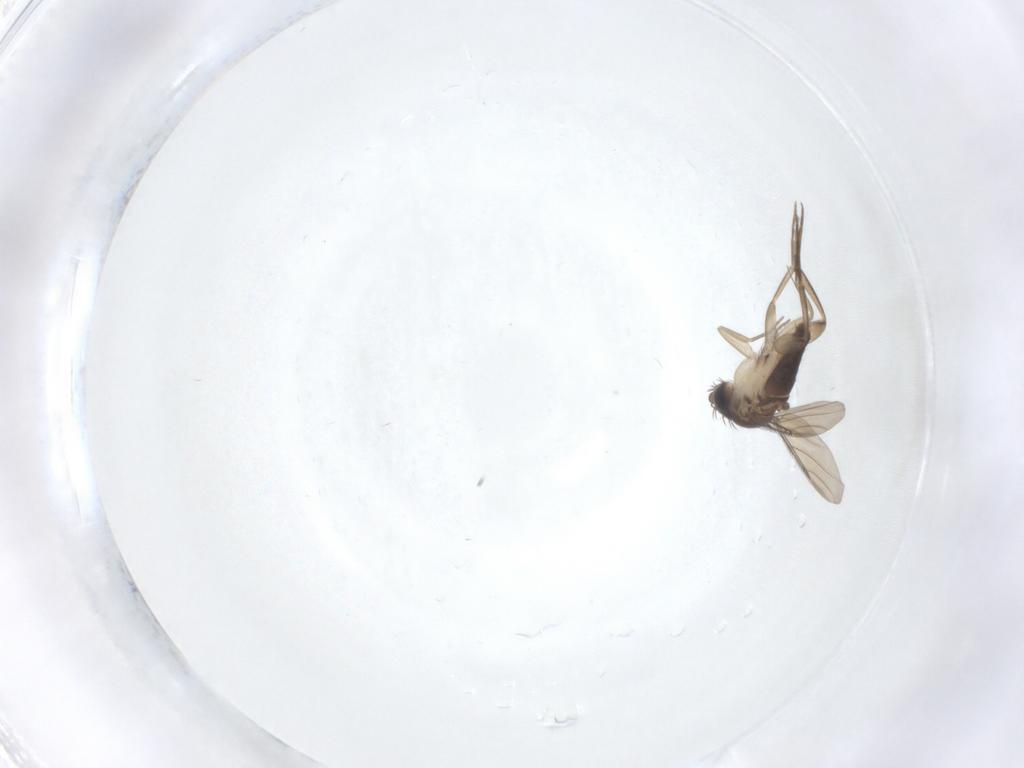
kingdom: Animalia
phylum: Arthropoda
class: Insecta
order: Diptera
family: Phoridae
